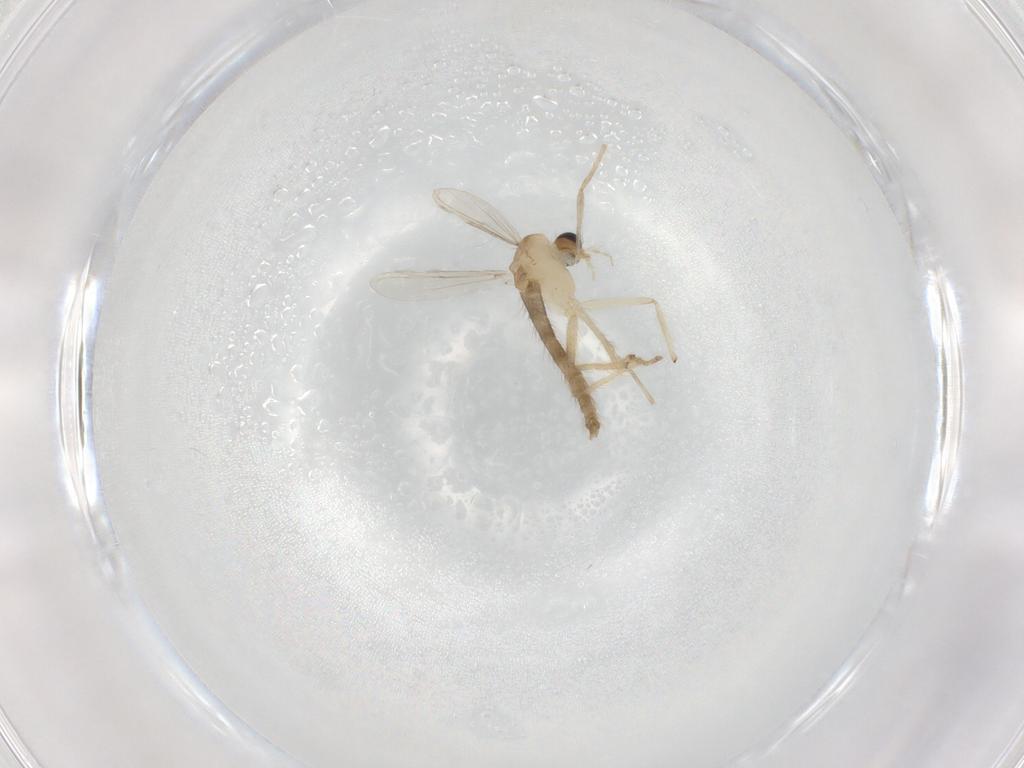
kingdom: Animalia
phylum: Arthropoda
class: Insecta
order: Diptera
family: Chironomidae
